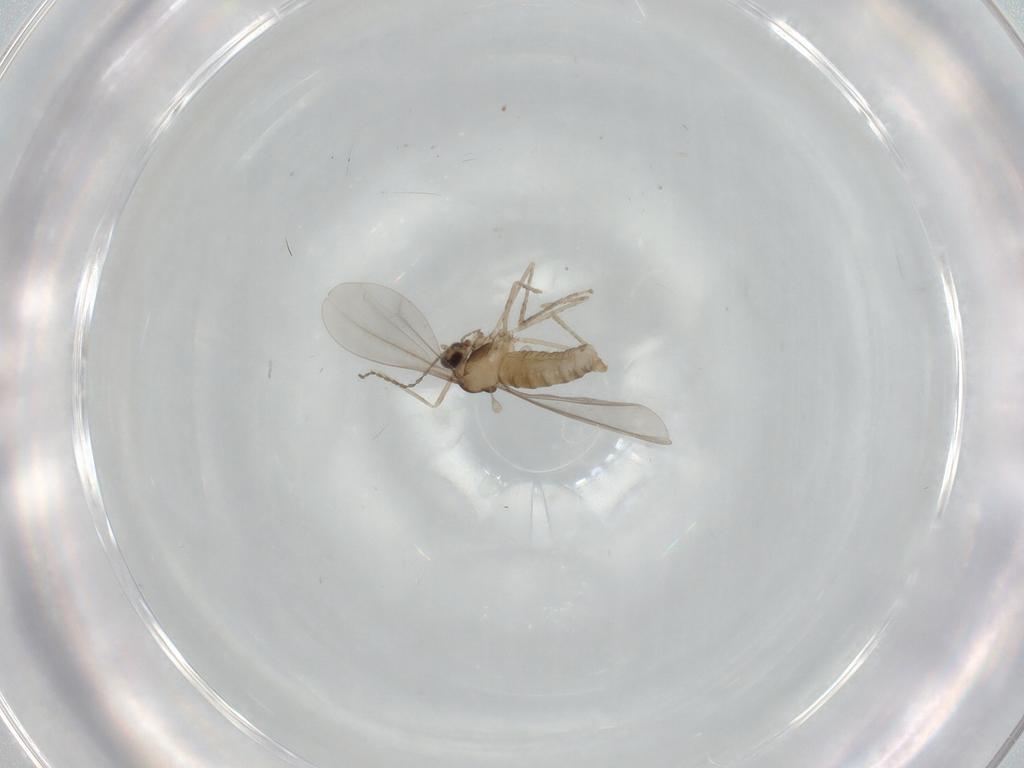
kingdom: Animalia
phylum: Arthropoda
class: Insecta
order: Diptera
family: Cecidomyiidae
